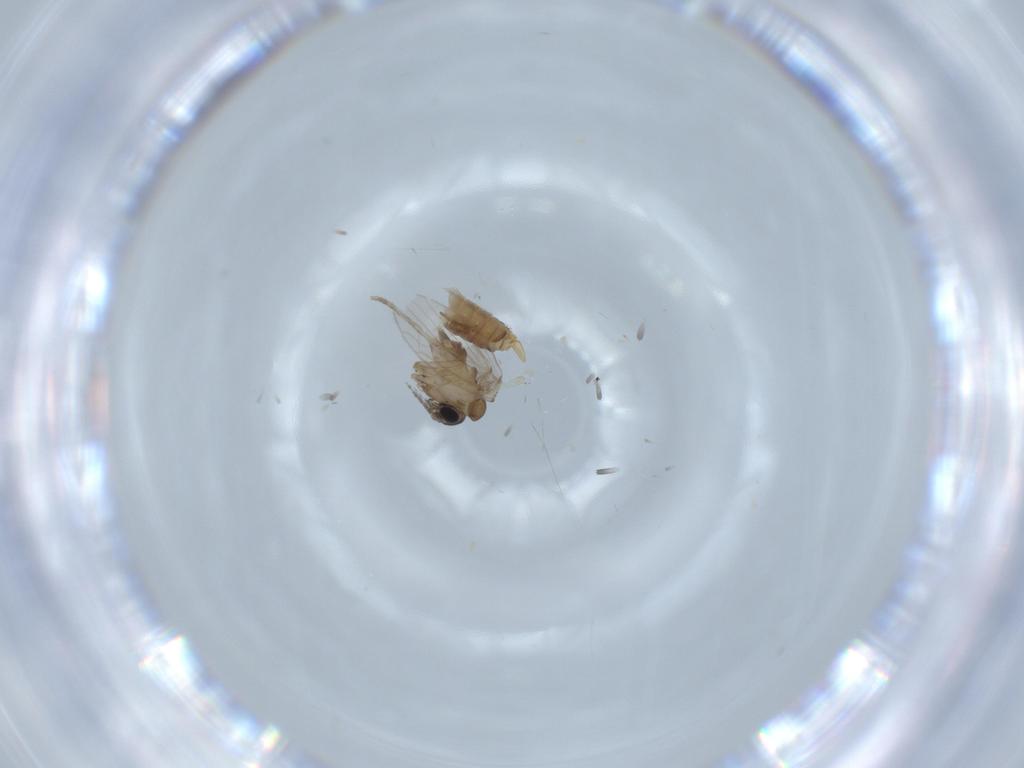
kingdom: Animalia
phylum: Arthropoda
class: Insecta
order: Diptera
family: Psychodidae
